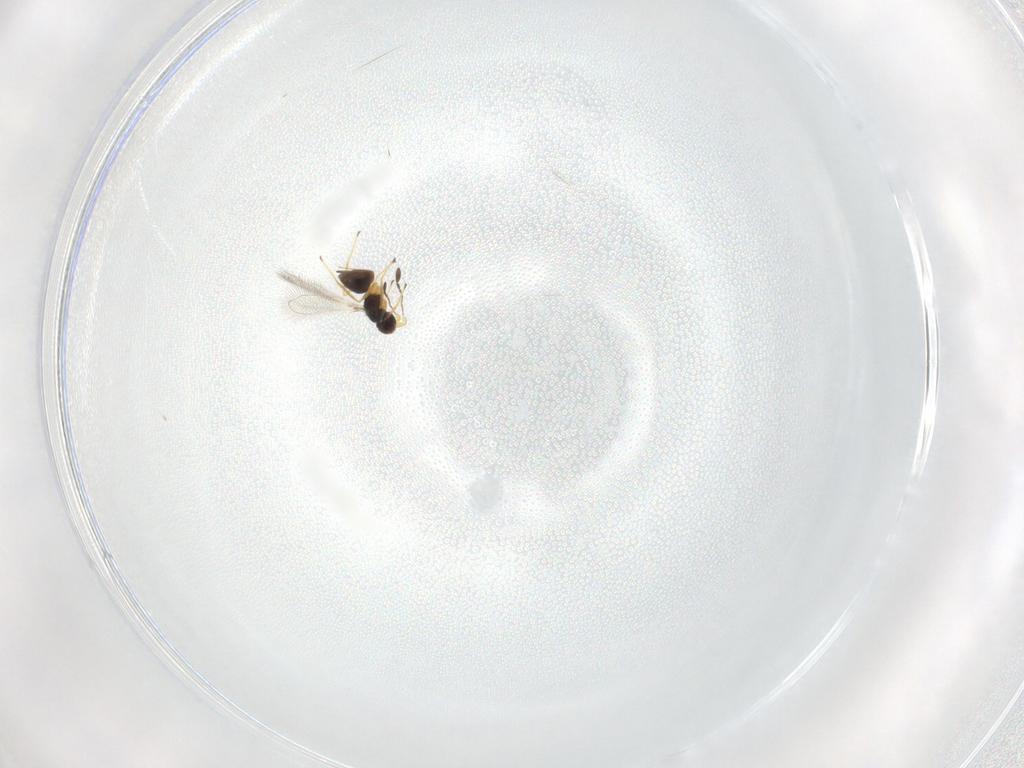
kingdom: Animalia
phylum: Arthropoda
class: Insecta
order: Hymenoptera
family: Mymaridae
